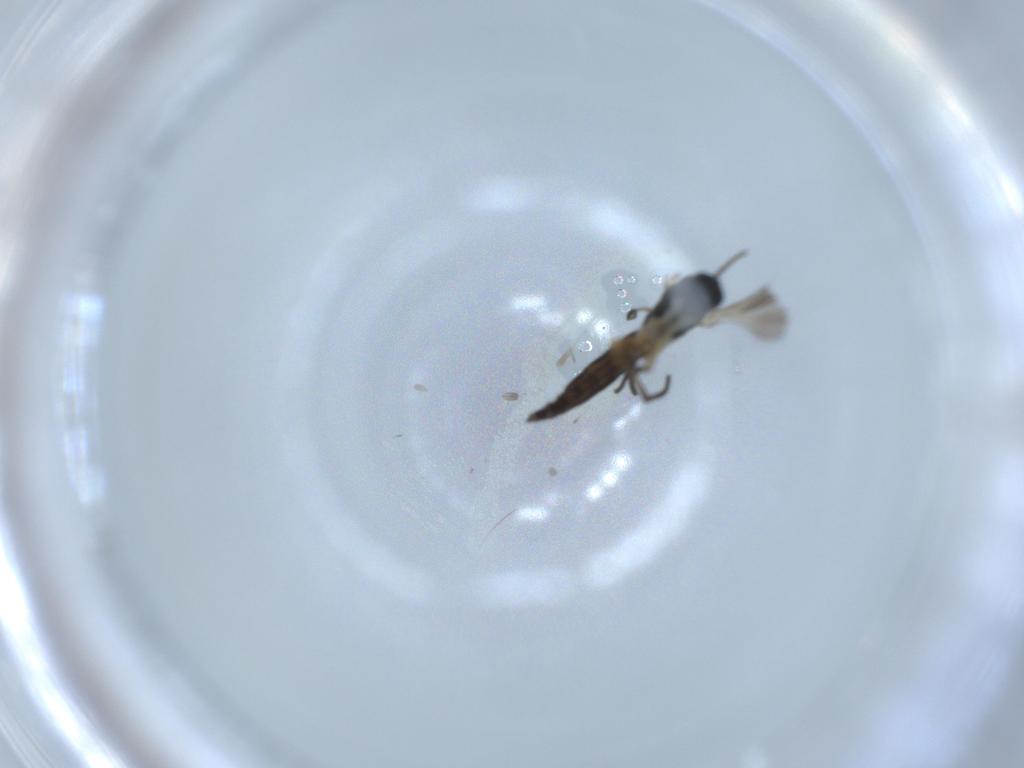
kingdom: Animalia
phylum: Arthropoda
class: Insecta
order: Diptera
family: Sciaridae
